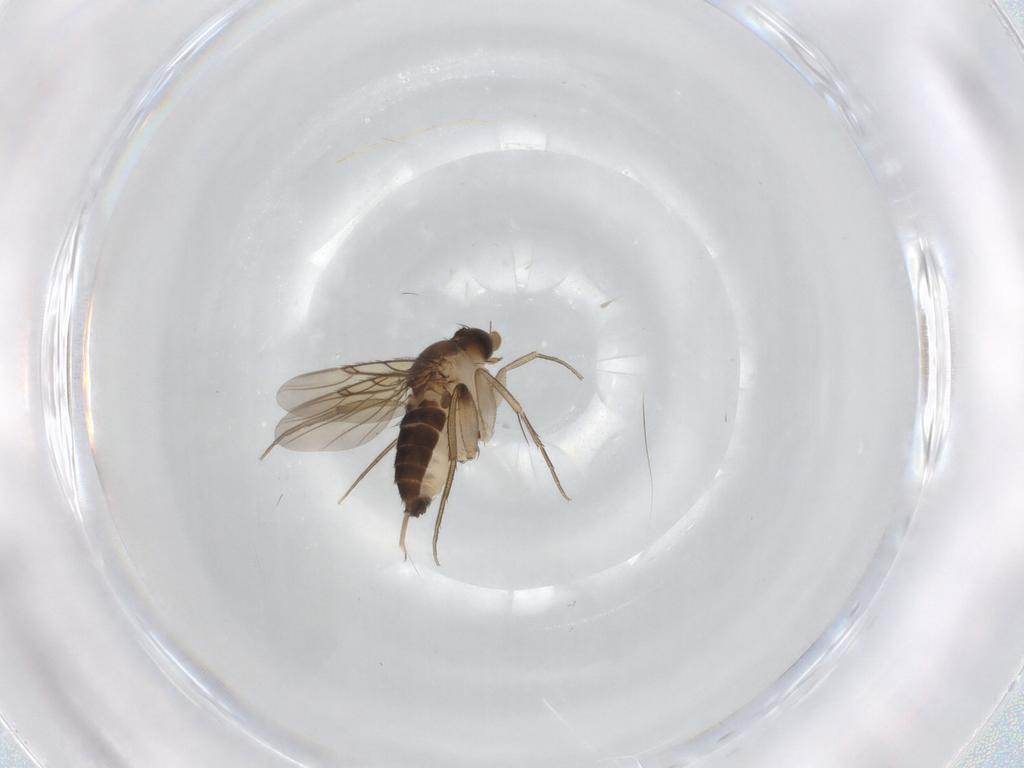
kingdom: Animalia
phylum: Arthropoda
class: Insecta
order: Diptera
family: Phoridae
